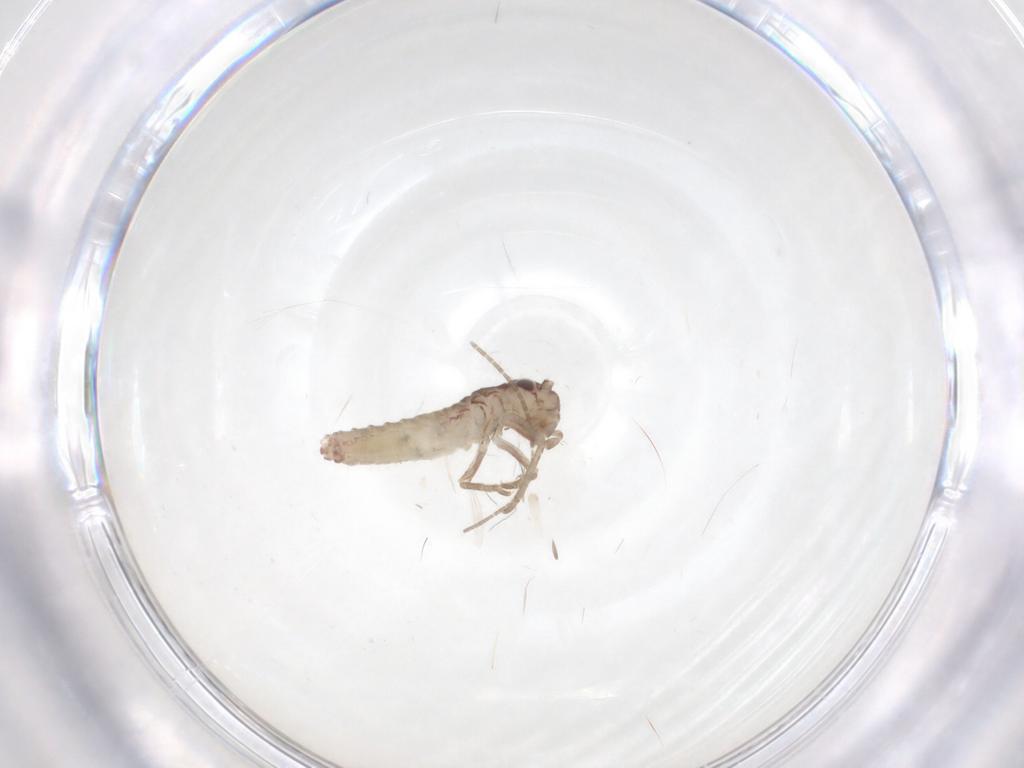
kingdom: Animalia
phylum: Arthropoda
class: Insecta
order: Orthoptera
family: Mogoplistidae
